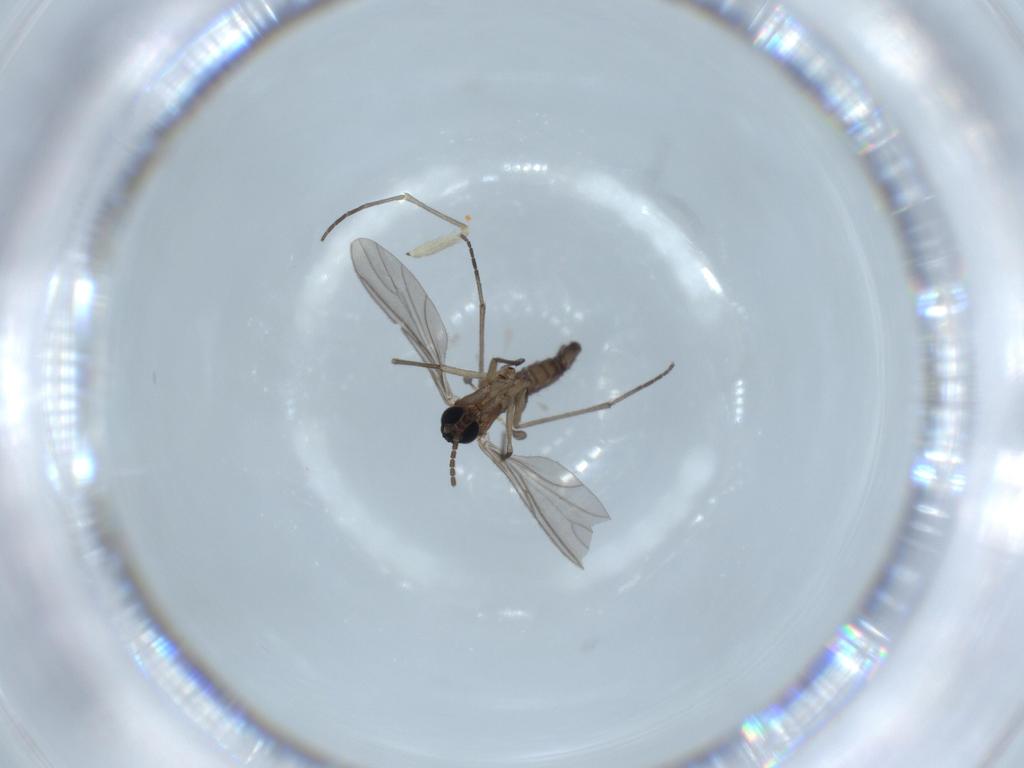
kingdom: Animalia
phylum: Arthropoda
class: Insecta
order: Diptera
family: Sciaridae
